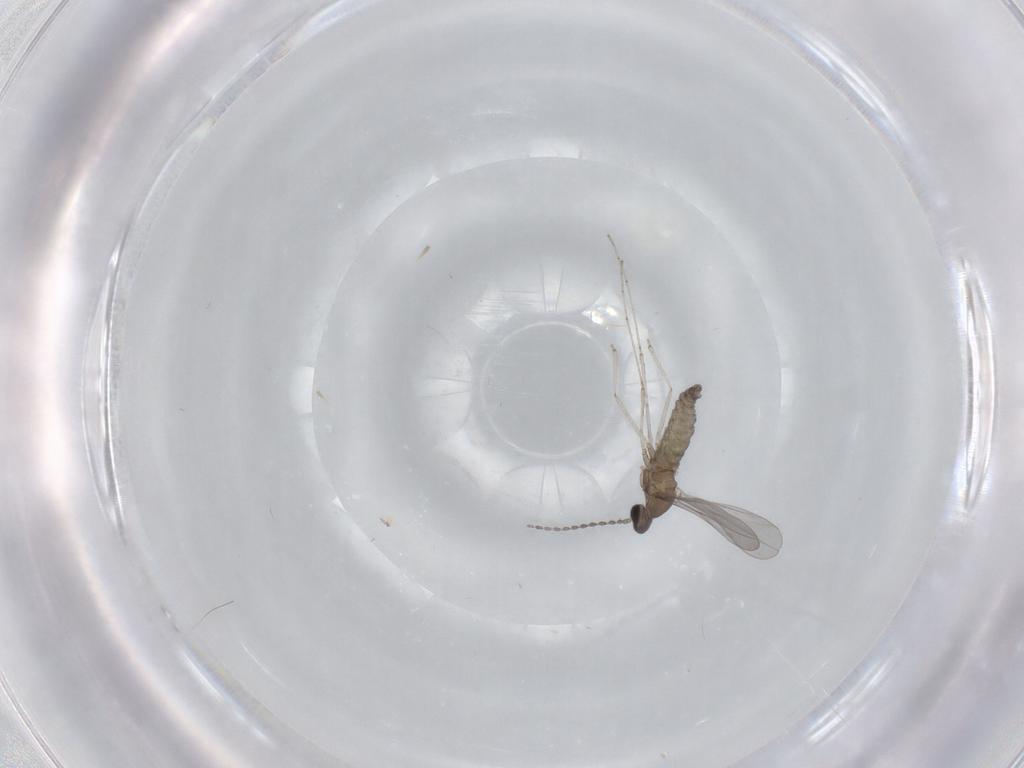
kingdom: Animalia
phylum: Arthropoda
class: Insecta
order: Diptera
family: Cecidomyiidae
